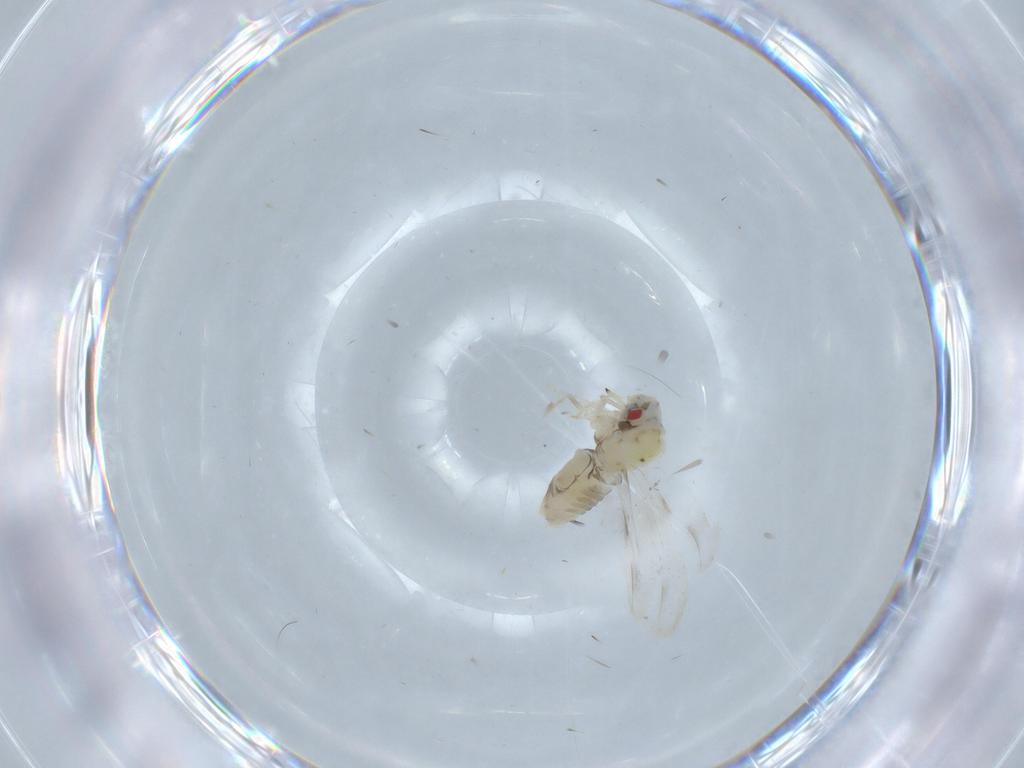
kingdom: Animalia
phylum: Arthropoda
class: Insecta
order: Hemiptera
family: Aleyrodidae
